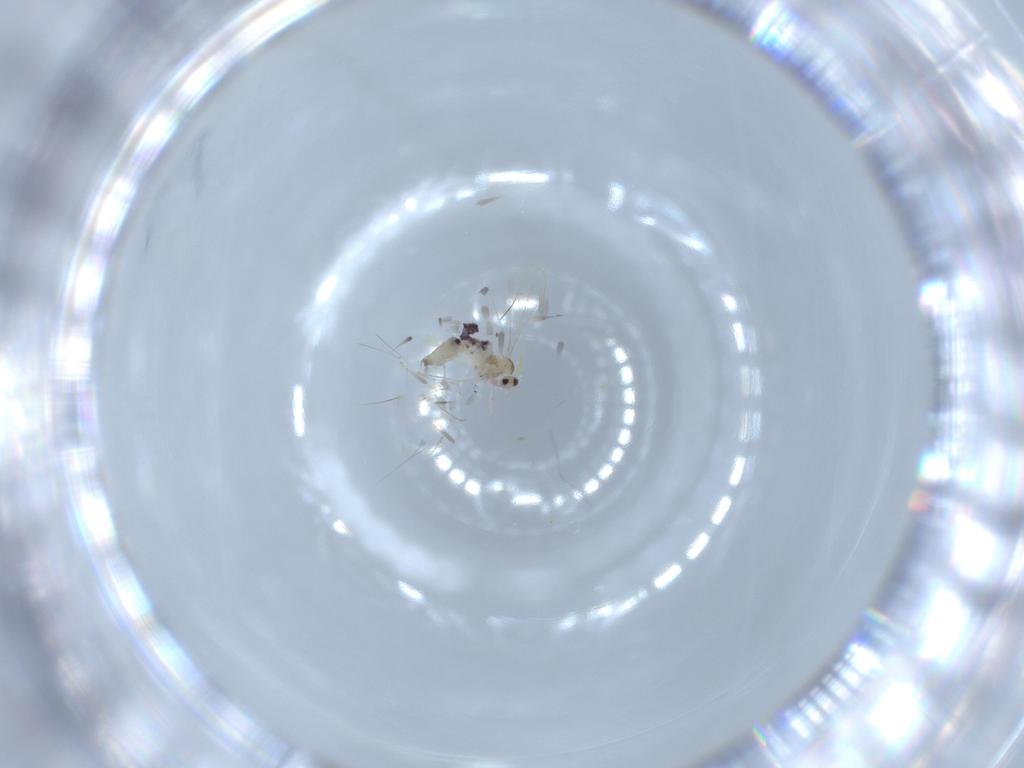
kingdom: Animalia
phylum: Arthropoda
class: Insecta
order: Diptera
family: Cecidomyiidae
